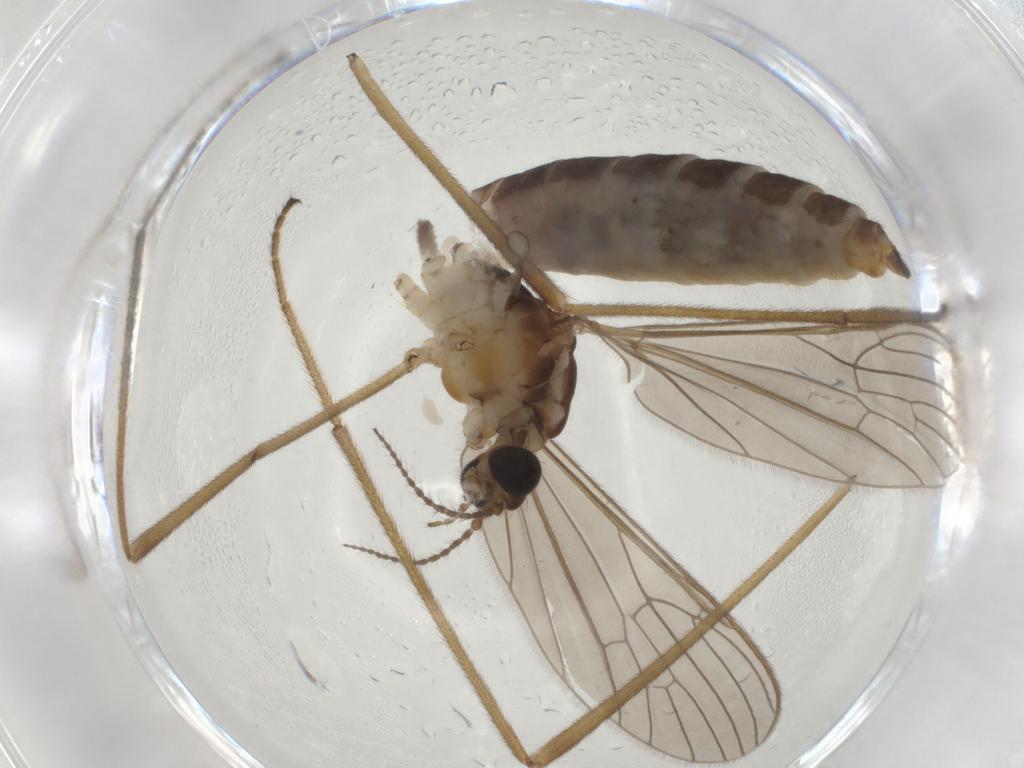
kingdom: Animalia
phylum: Arthropoda
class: Insecta
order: Diptera
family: Limoniidae
